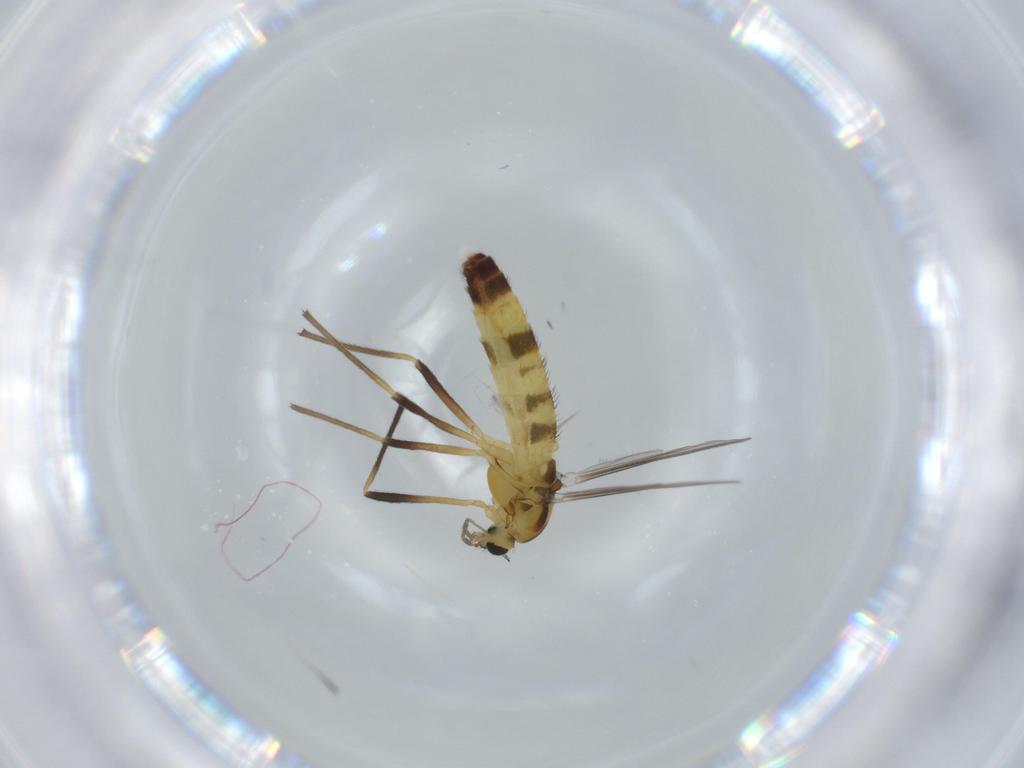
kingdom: Animalia
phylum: Arthropoda
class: Insecta
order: Diptera
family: Chironomidae
